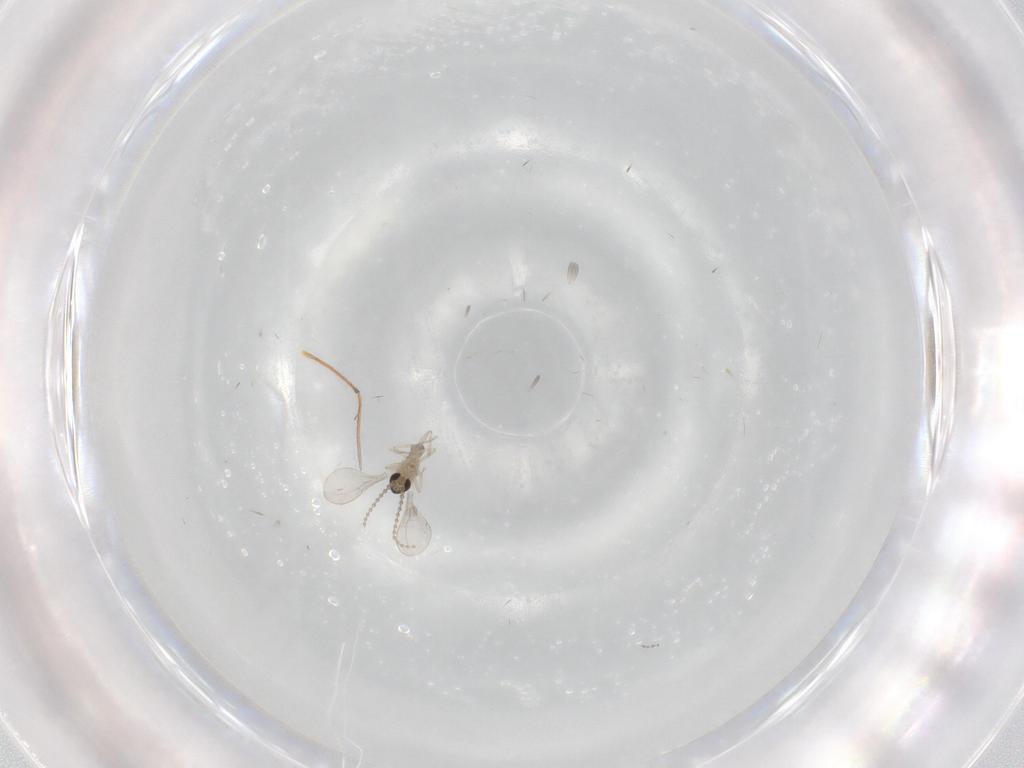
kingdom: Animalia
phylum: Arthropoda
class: Insecta
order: Diptera
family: Cecidomyiidae
